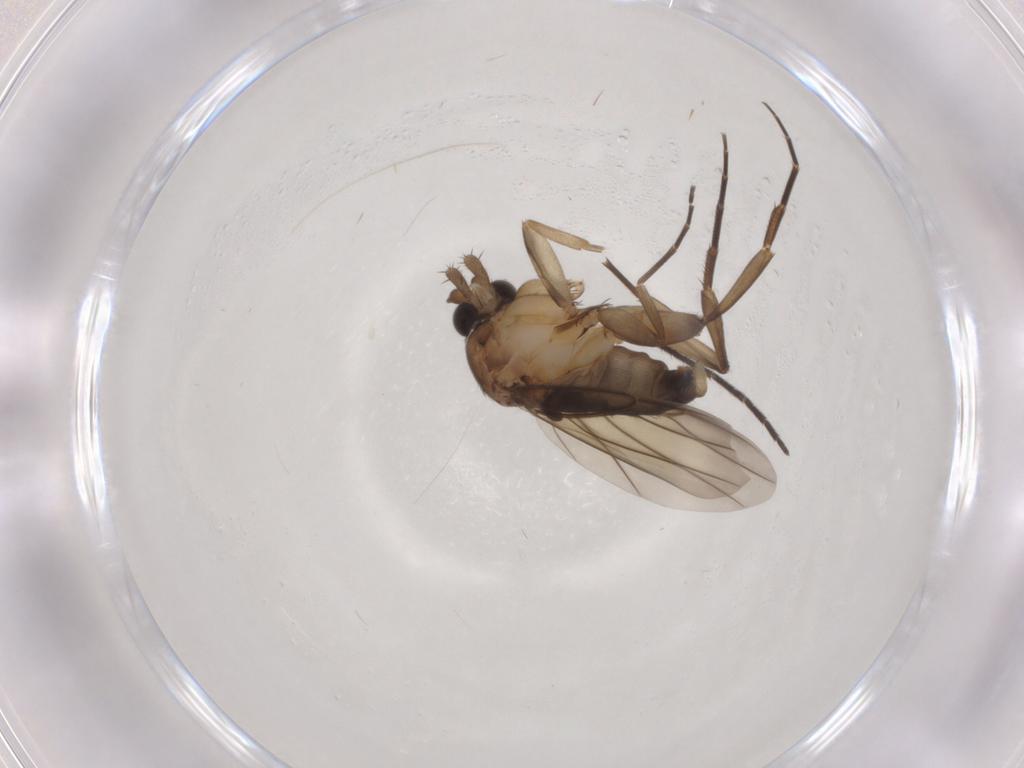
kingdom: Animalia
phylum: Arthropoda
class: Insecta
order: Diptera
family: Phoridae
